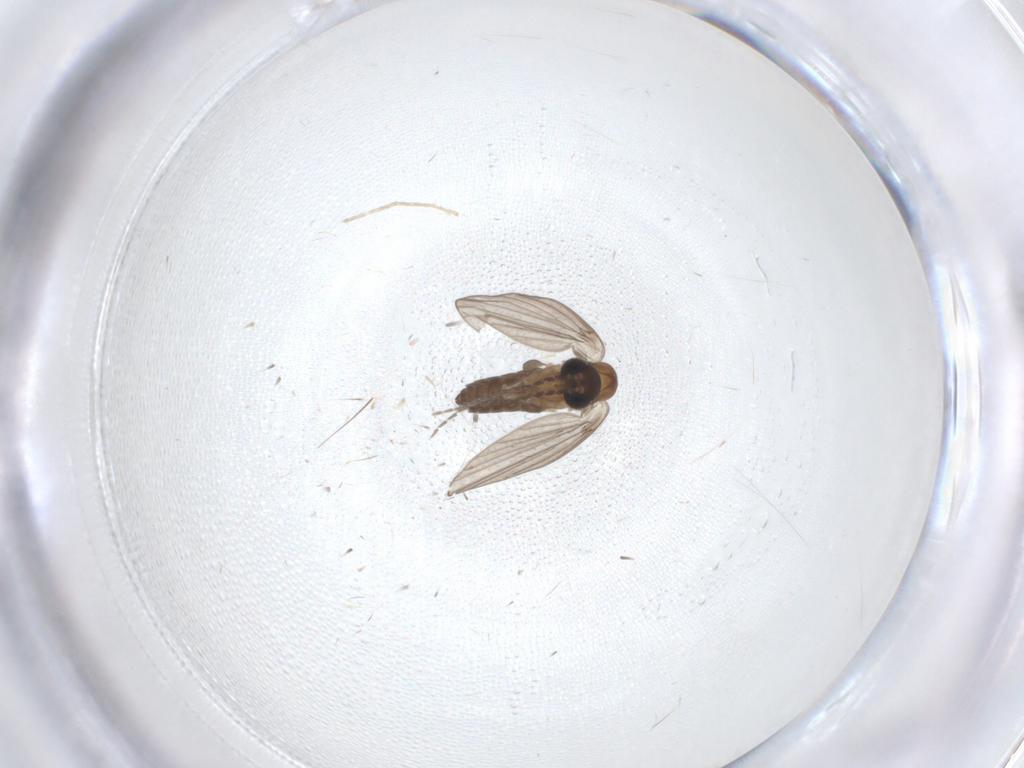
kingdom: Animalia
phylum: Arthropoda
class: Insecta
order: Diptera
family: Cecidomyiidae
